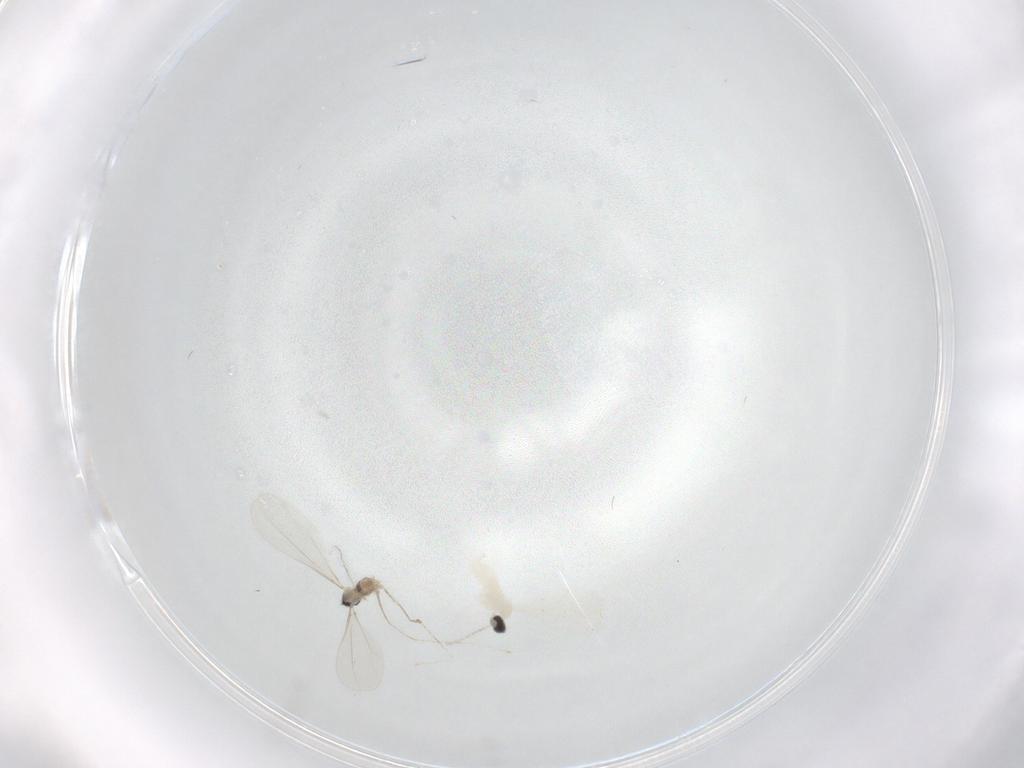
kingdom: Animalia
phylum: Arthropoda
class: Insecta
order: Diptera
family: Cecidomyiidae
